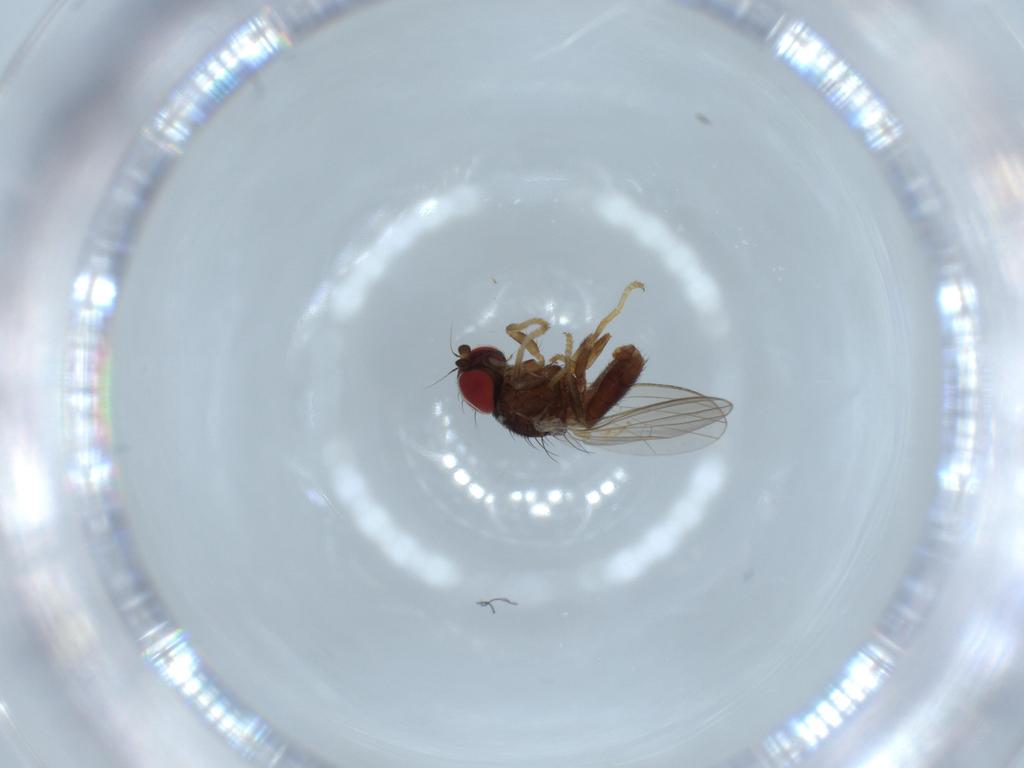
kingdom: Animalia
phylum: Arthropoda
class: Insecta
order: Diptera
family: Chamaemyiidae
